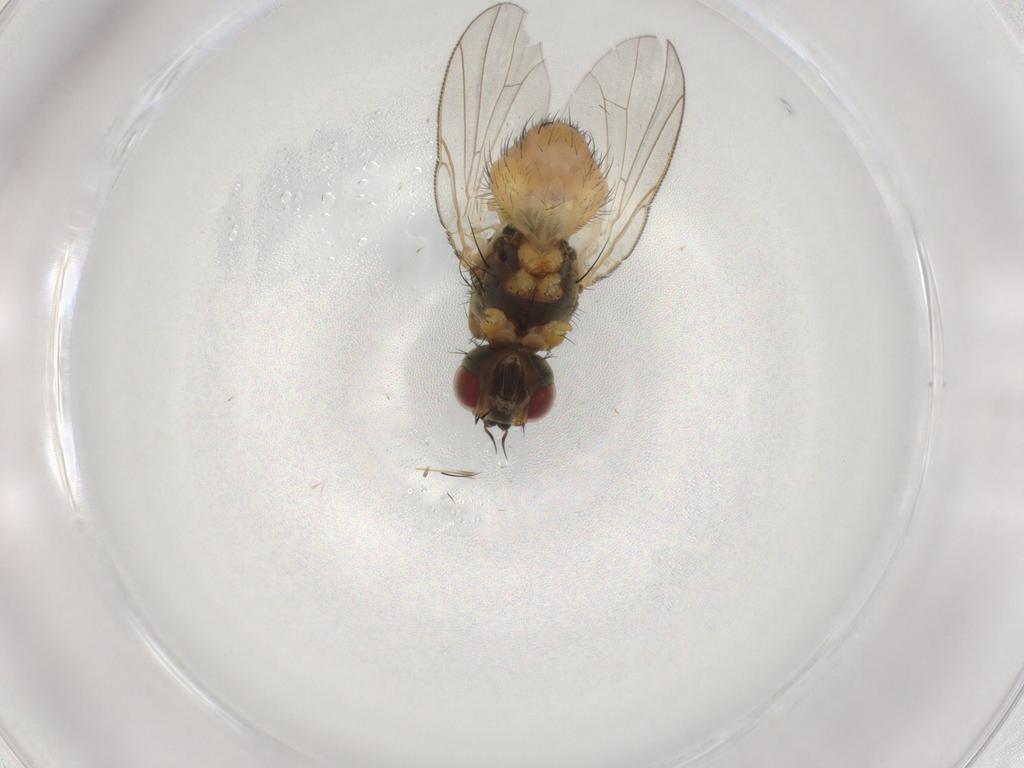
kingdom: Animalia
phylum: Arthropoda
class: Insecta
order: Diptera
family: Muscidae
